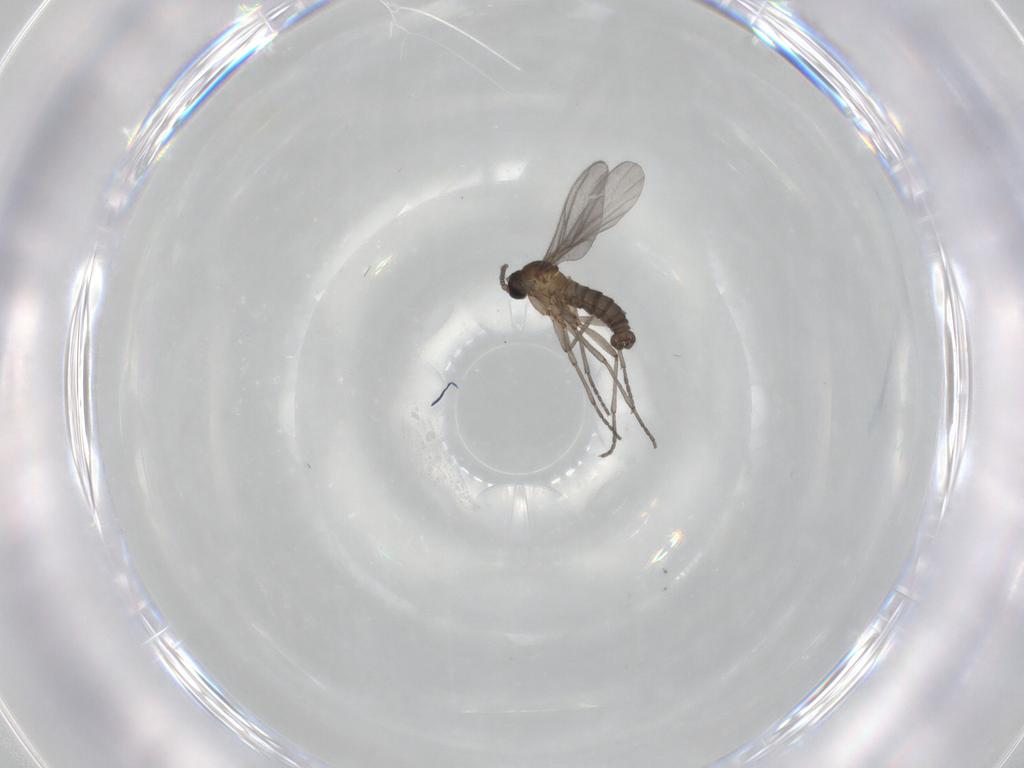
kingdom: Animalia
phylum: Arthropoda
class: Insecta
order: Diptera
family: Sciaridae
